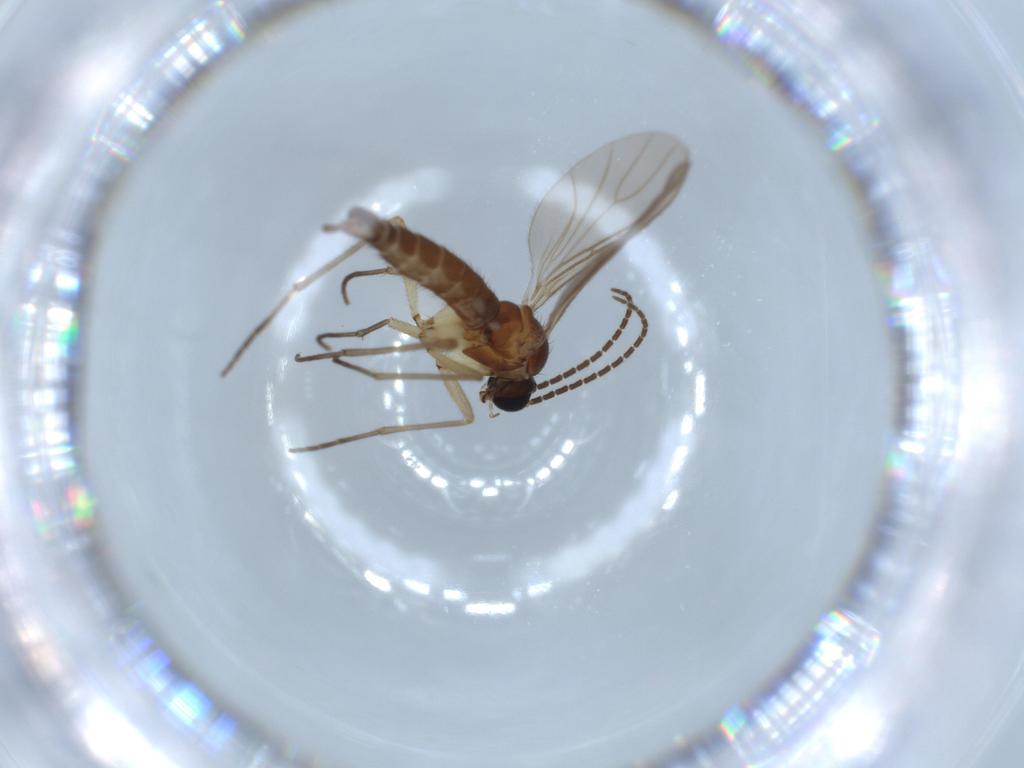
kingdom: Animalia
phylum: Arthropoda
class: Insecta
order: Diptera
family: Sciaridae
